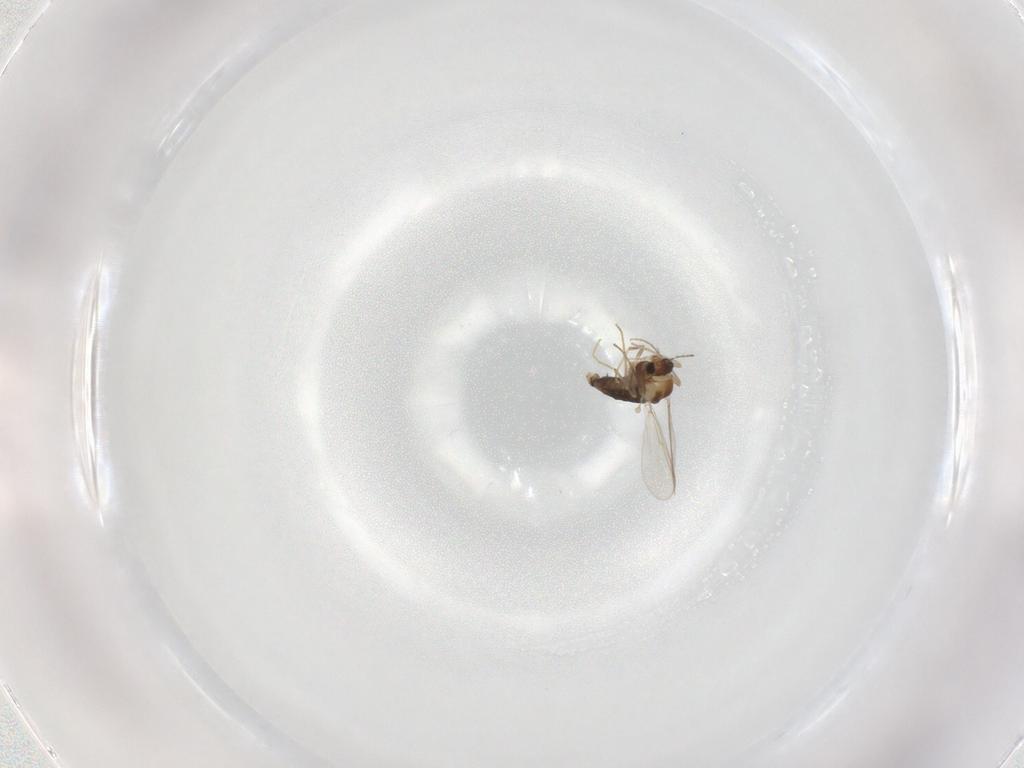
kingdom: Animalia
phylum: Arthropoda
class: Insecta
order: Diptera
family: Chironomidae
